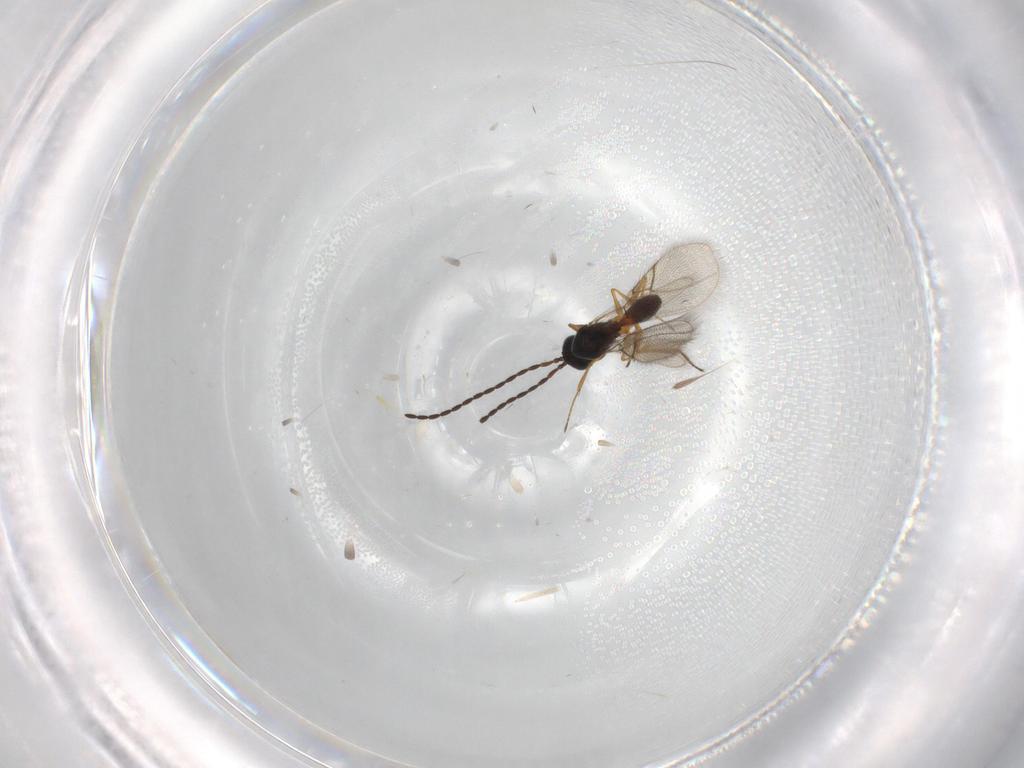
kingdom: Animalia
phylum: Arthropoda
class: Insecta
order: Hymenoptera
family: Figitidae
